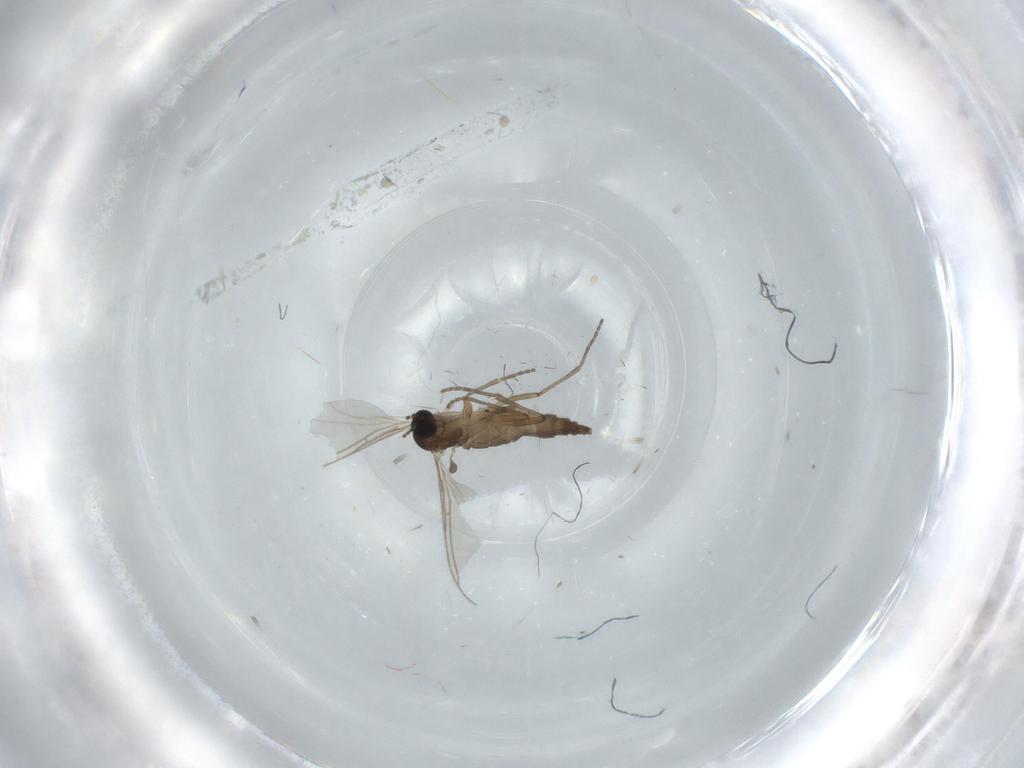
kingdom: Animalia
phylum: Arthropoda
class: Insecta
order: Diptera
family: Sciaridae
